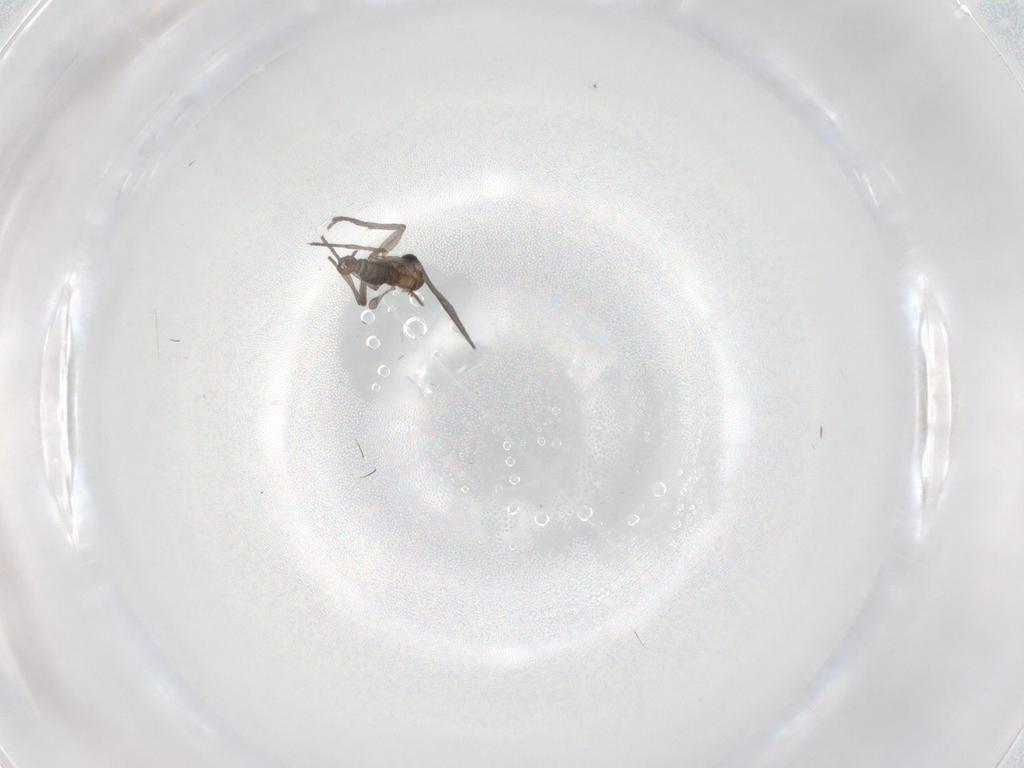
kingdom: Animalia
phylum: Arthropoda
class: Insecta
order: Diptera
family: Sciaridae
